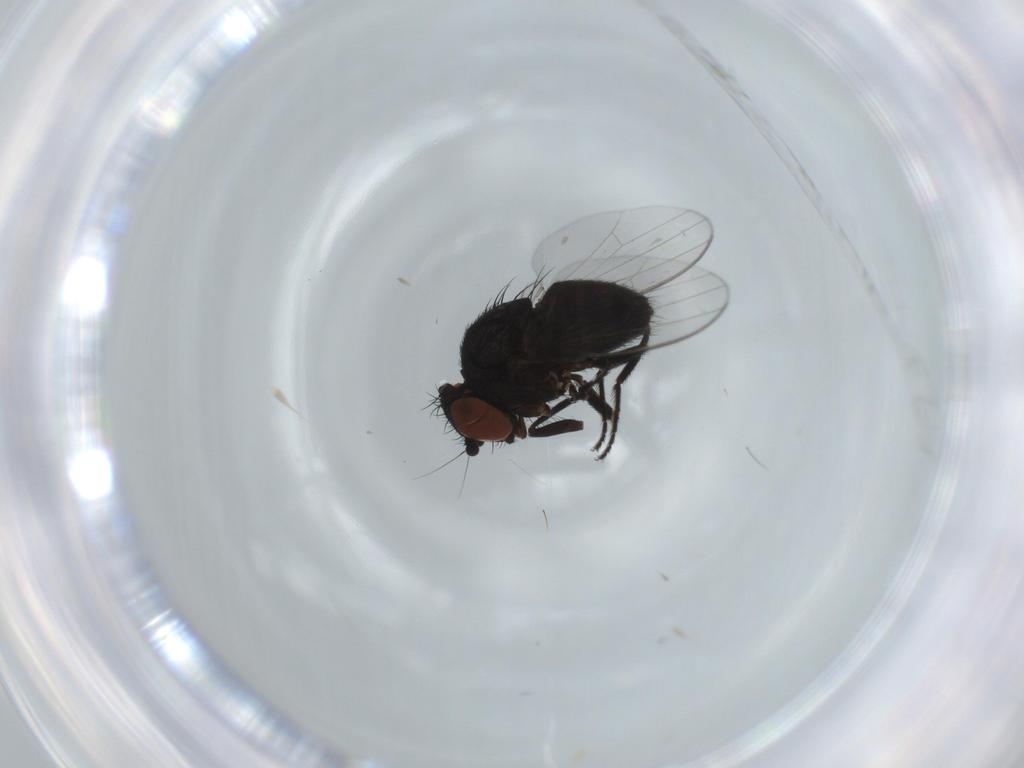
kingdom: Animalia
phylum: Arthropoda
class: Insecta
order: Diptera
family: Milichiidae
